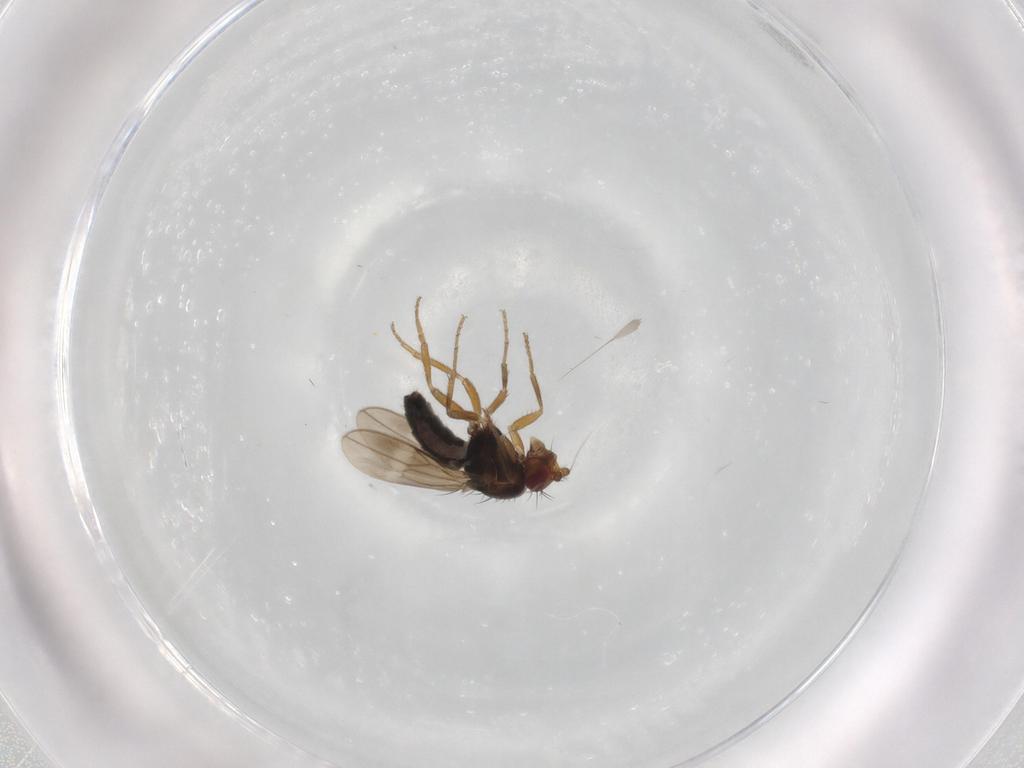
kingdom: Animalia
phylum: Arthropoda
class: Insecta
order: Diptera
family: Sphaeroceridae
